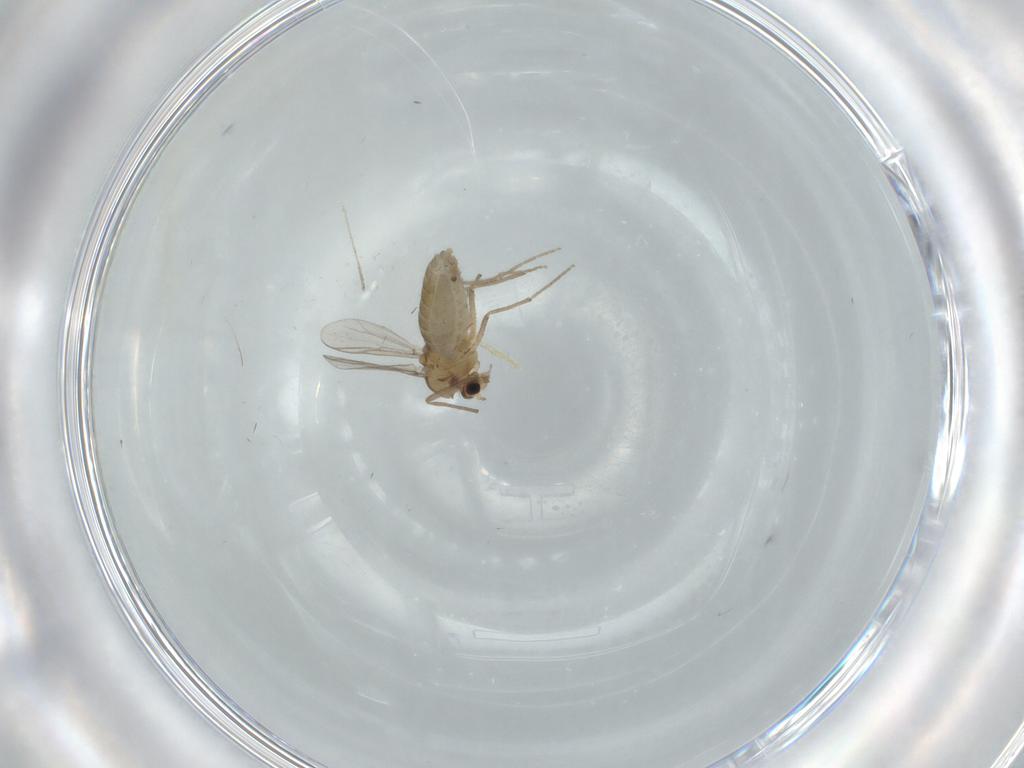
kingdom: Animalia
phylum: Arthropoda
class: Insecta
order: Diptera
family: Chironomidae
